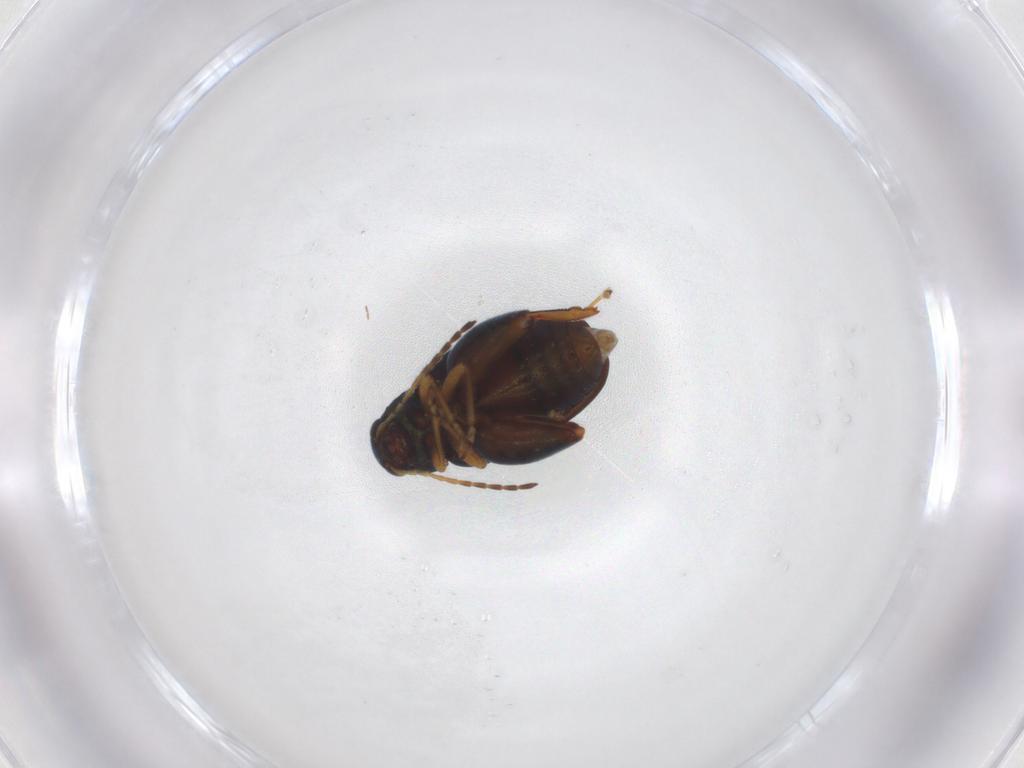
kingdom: Animalia
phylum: Arthropoda
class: Insecta
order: Coleoptera
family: Chrysomelidae
